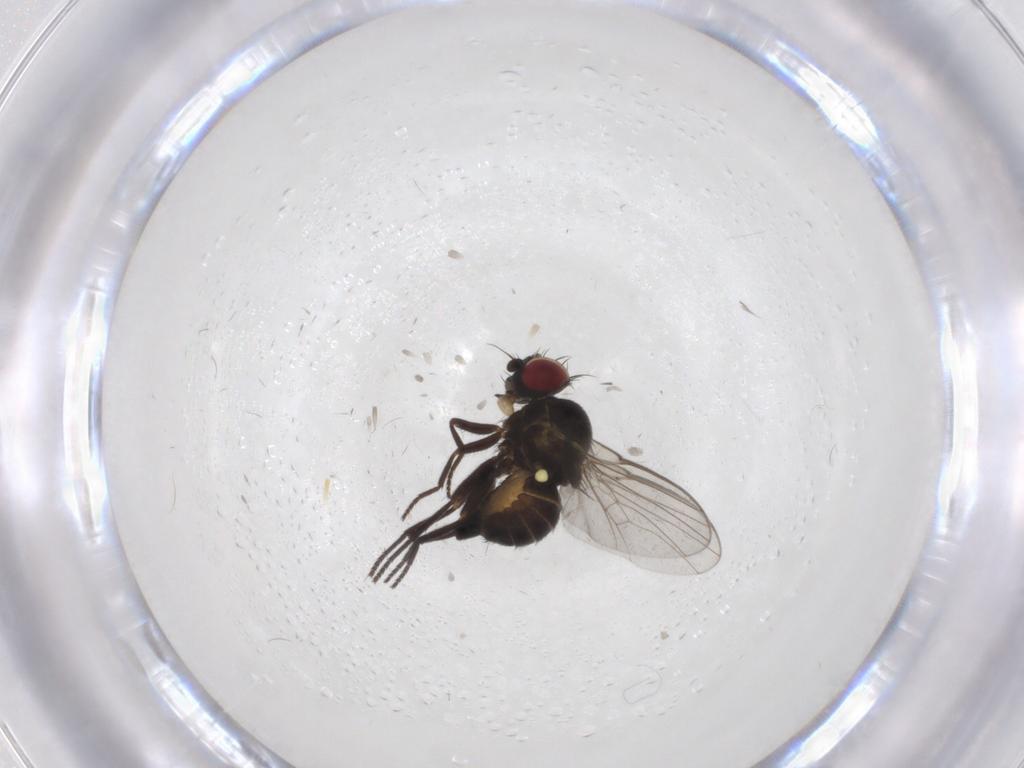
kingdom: Animalia
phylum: Arthropoda
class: Insecta
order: Diptera
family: Agromyzidae
